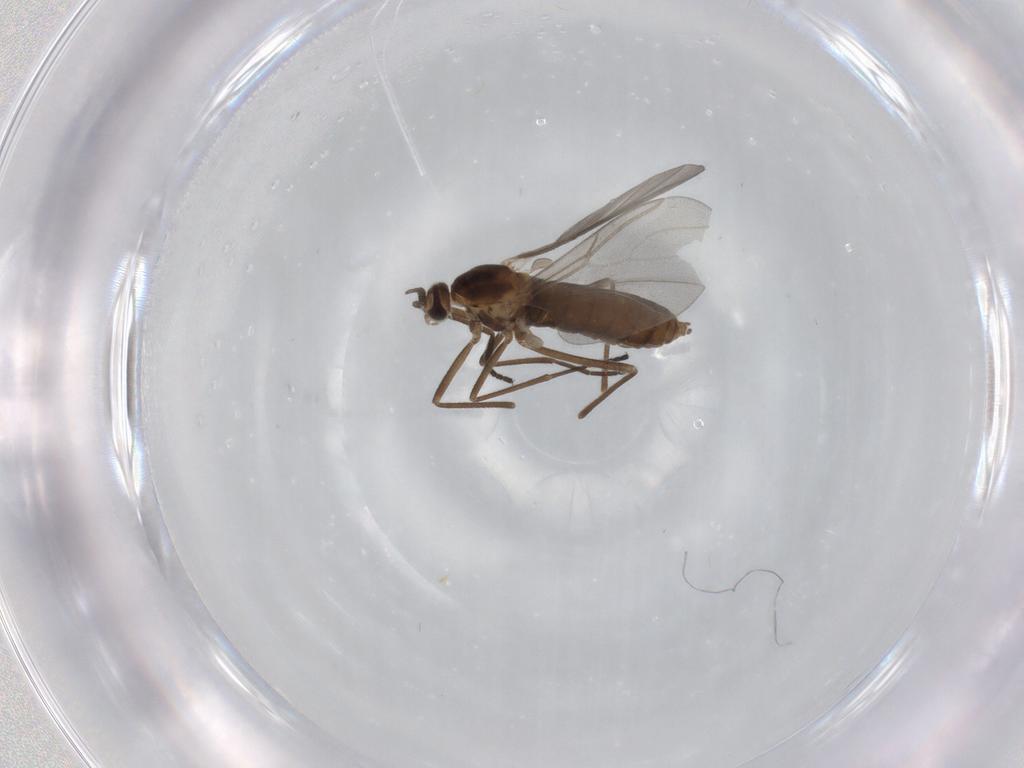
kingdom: Animalia
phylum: Arthropoda
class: Insecta
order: Diptera
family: Cecidomyiidae
